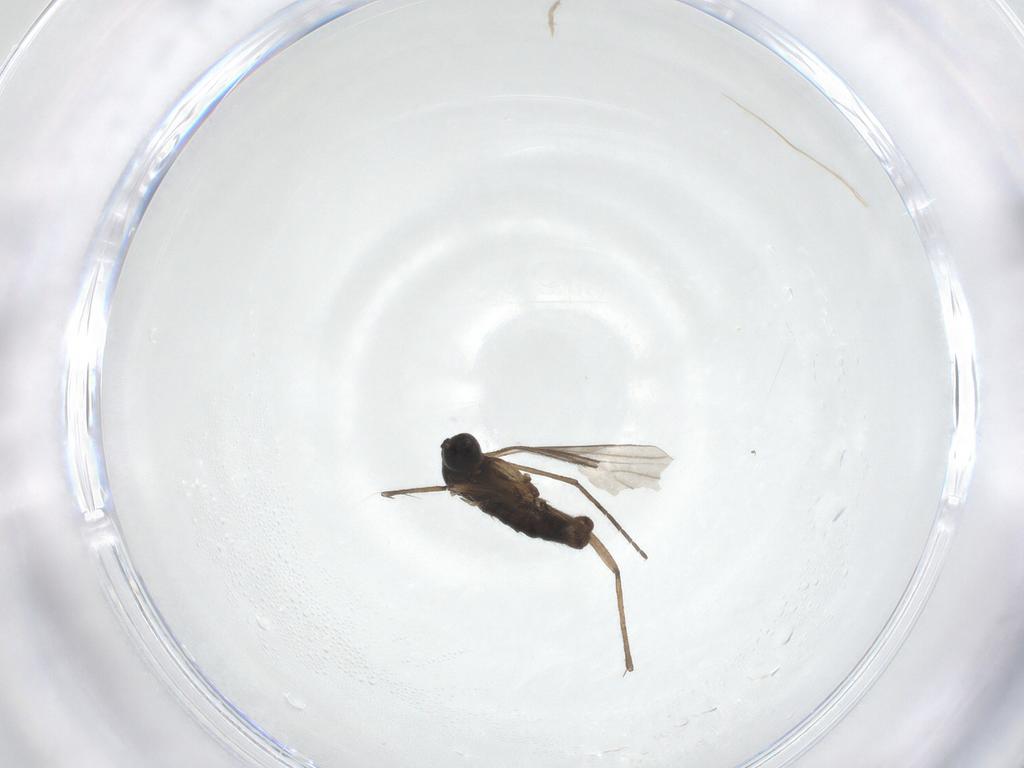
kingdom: Animalia
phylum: Arthropoda
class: Insecta
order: Diptera
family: Sciaridae
